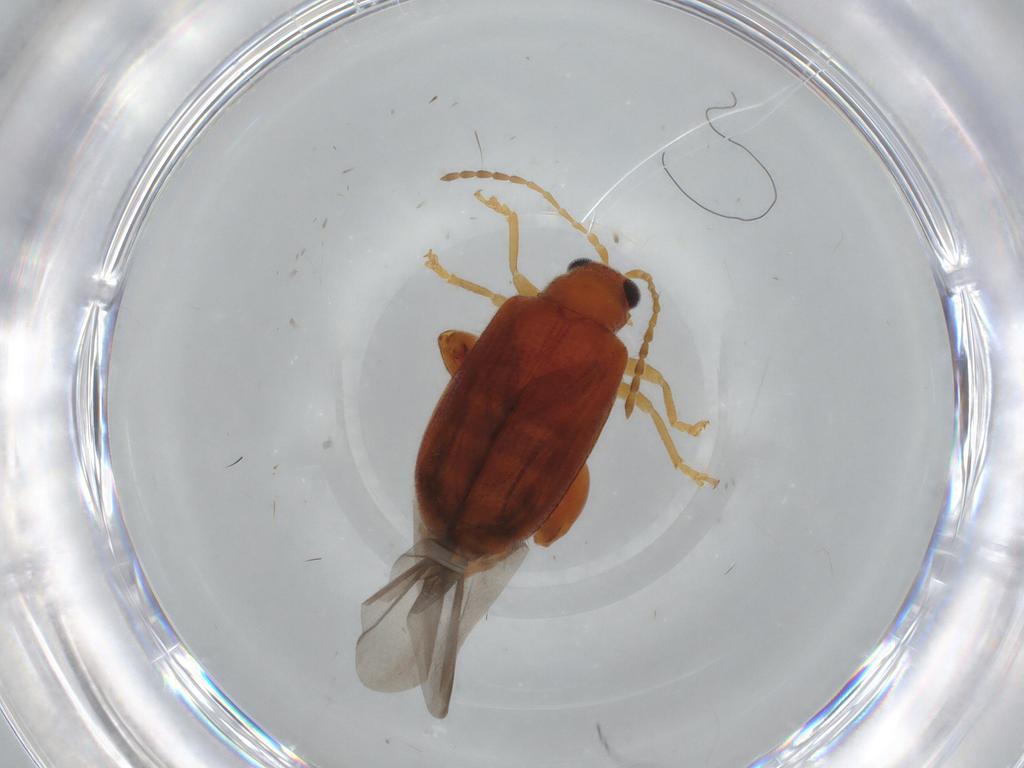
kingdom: Animalia
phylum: Arthropoda
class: Insecta
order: Coleoptera
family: Chrysomelidae
